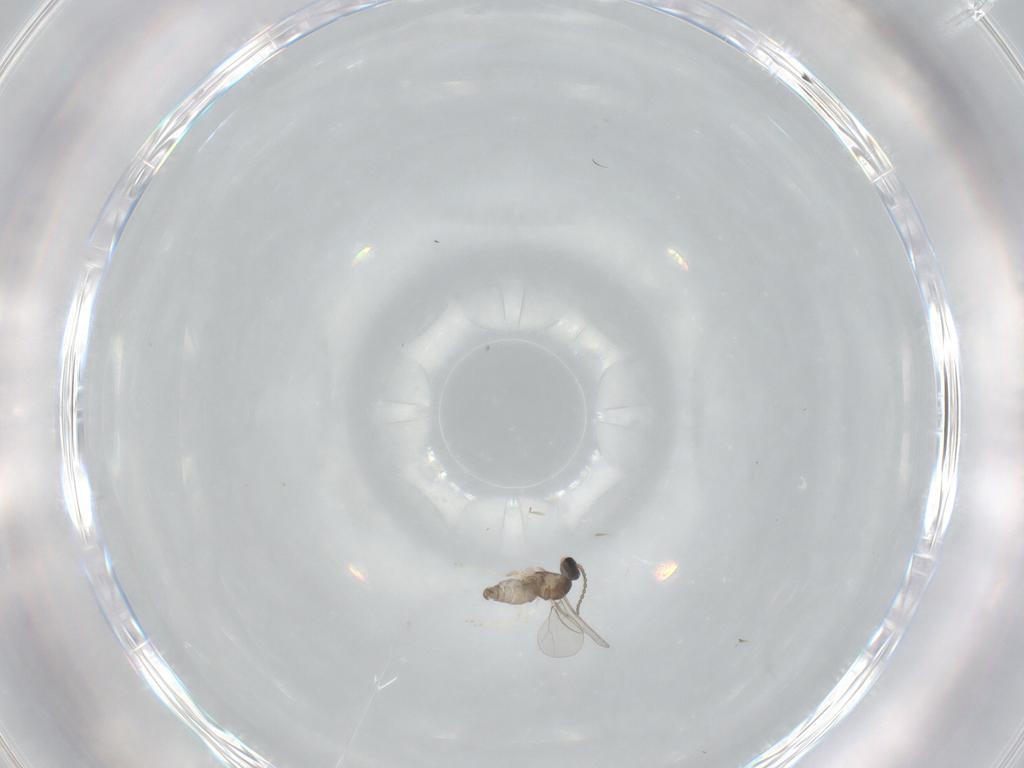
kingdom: Animalia
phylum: Arthropoda
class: Insecta
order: Diptera
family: Cecidomyiidae
